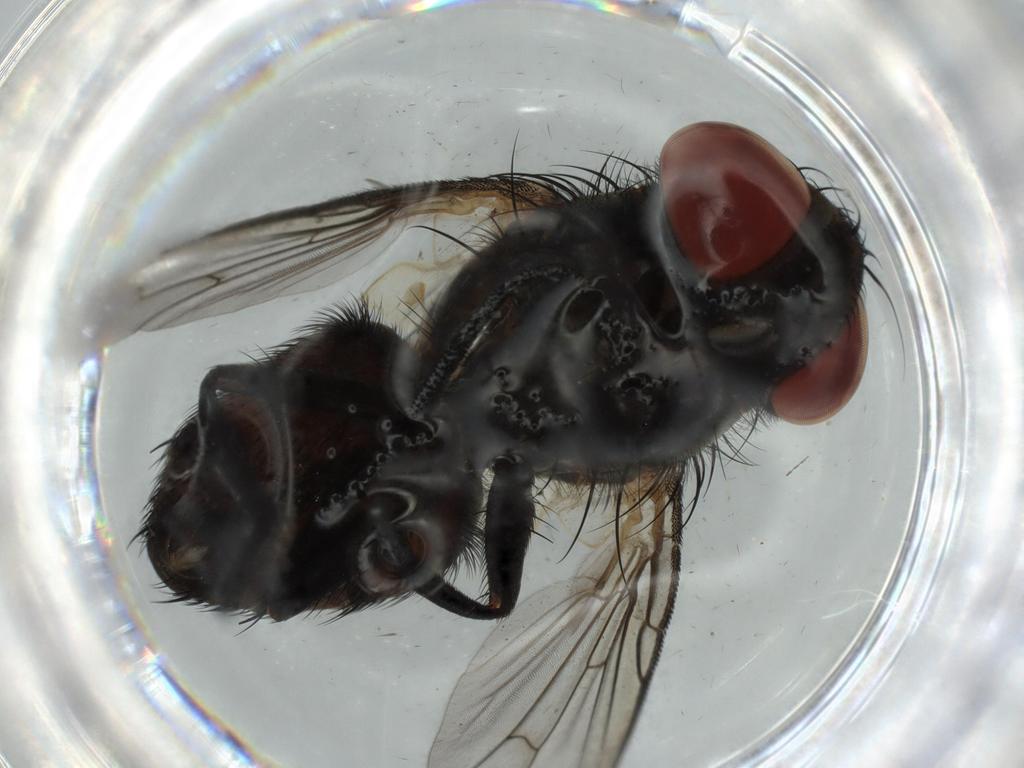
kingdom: Animalia
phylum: Arthropoda
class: Insecta
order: Diptera
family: Cecidomyiidae
